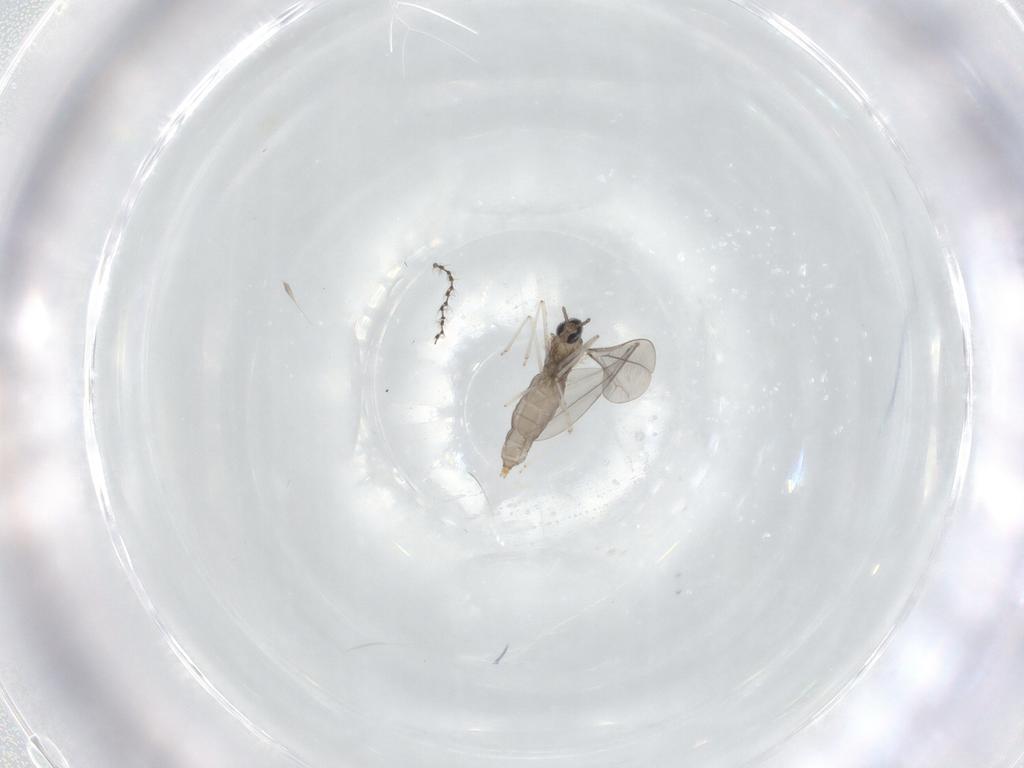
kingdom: Animalia
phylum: Arthropoda
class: Insecta
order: Diptera
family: Cecidomyiidae
